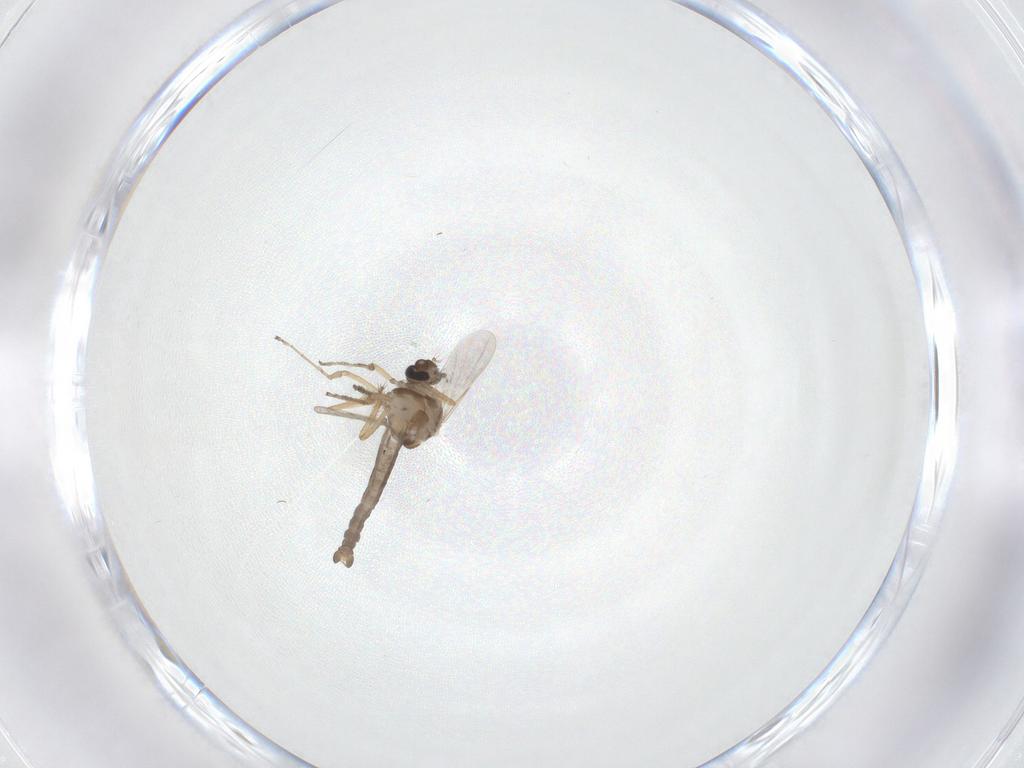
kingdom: Animalia
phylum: Arthropoda
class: Insecta
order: Diptera
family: Ceratopogonidae
